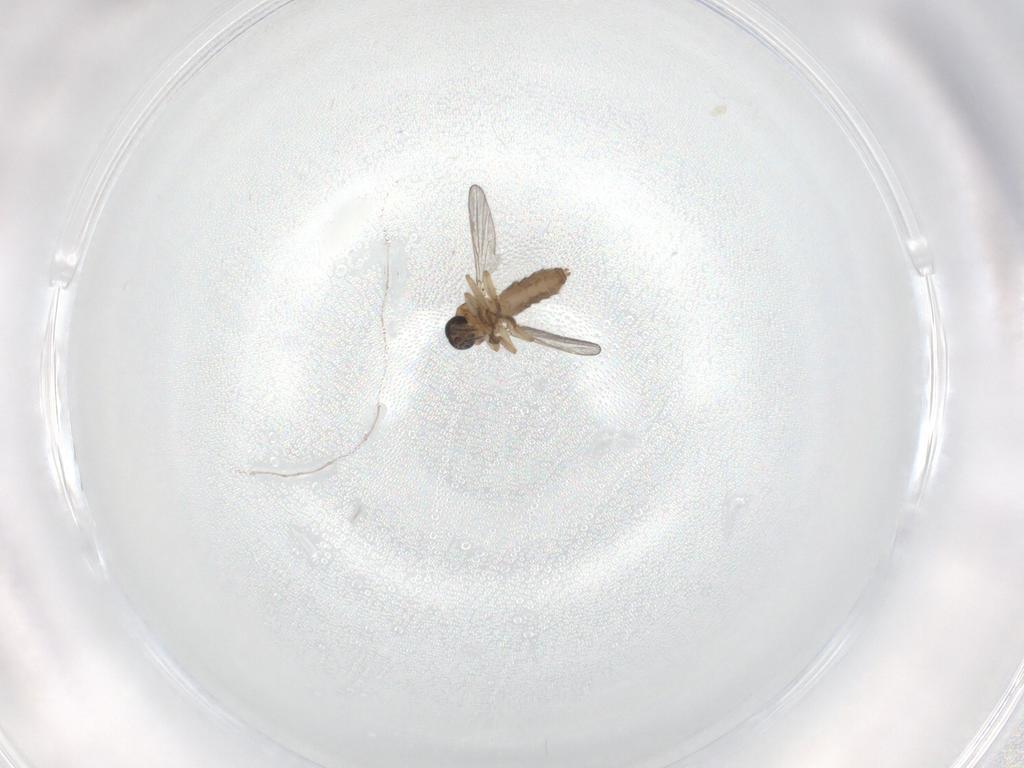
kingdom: Animalia
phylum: Arthropoda
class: Insecta
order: Diptera
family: Ceratopogonidae
